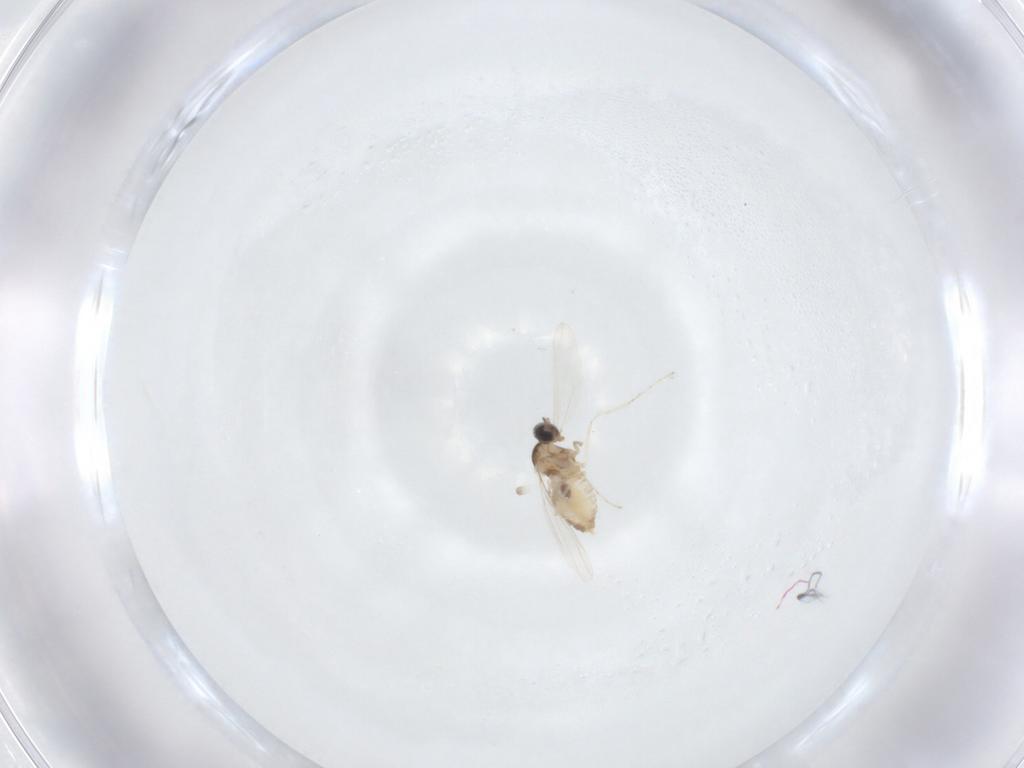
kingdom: Animalia
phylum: Arthropoda
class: Insecta
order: Diptera
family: Cecidomyiidae
